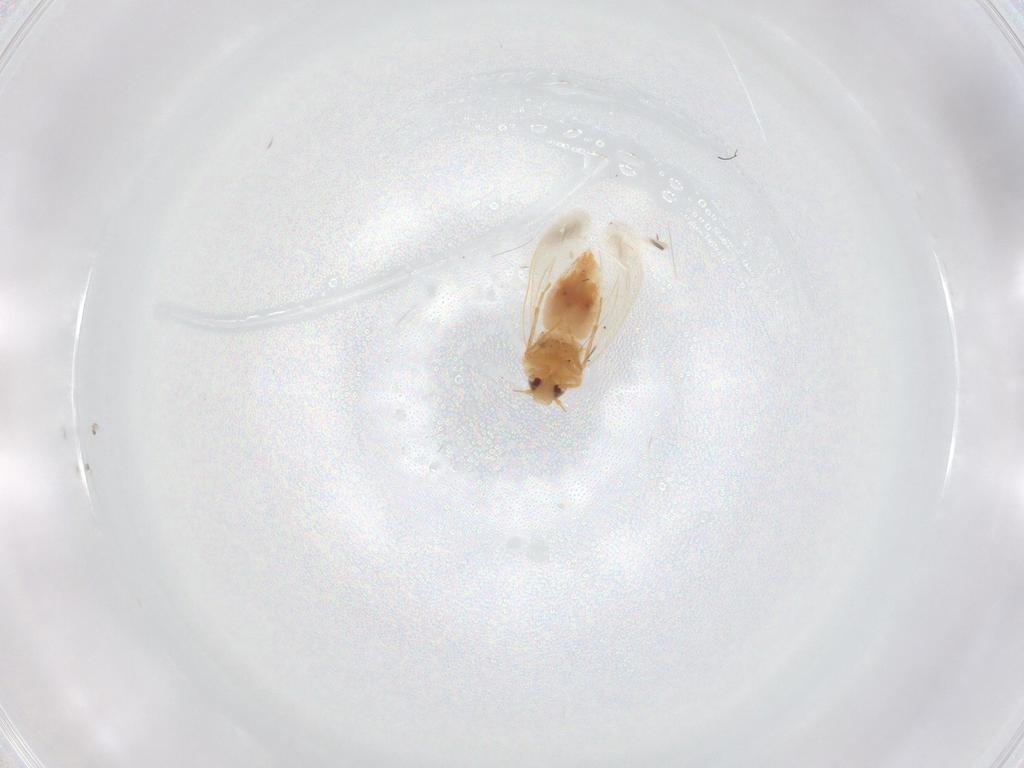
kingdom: Animalia
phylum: Arthropoda
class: Insecta
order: Hemiptera
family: Aleyrodidae
